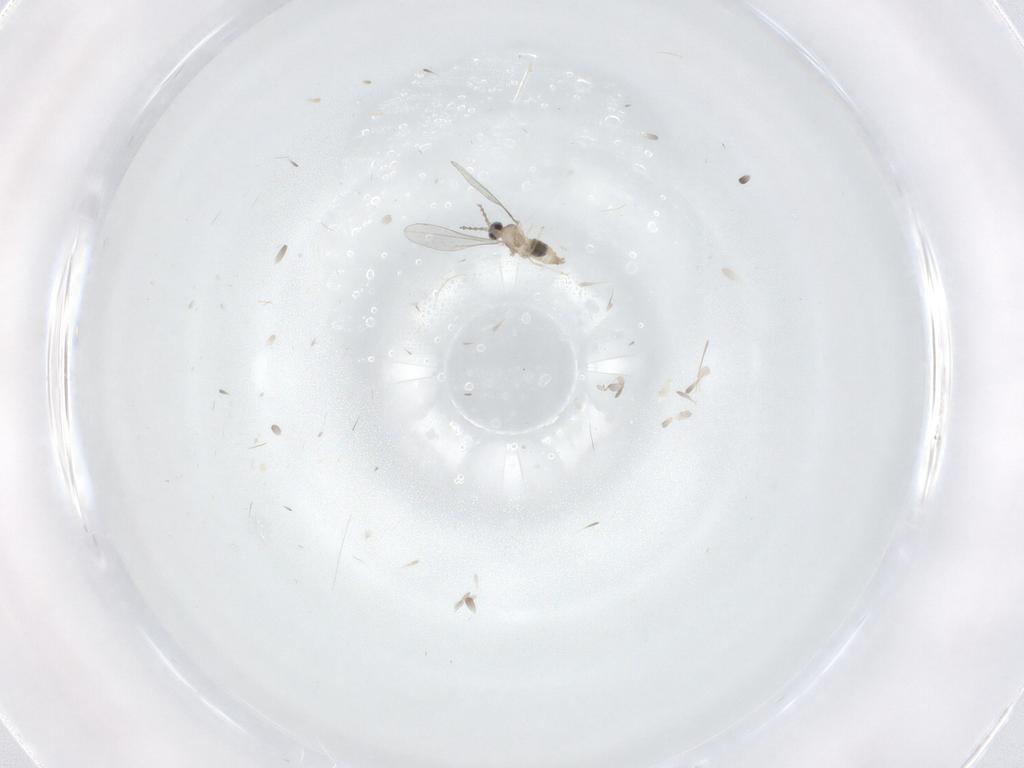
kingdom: Animalia
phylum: Arthropoda
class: Insecta
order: Diptera
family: Cecidomyiidae
